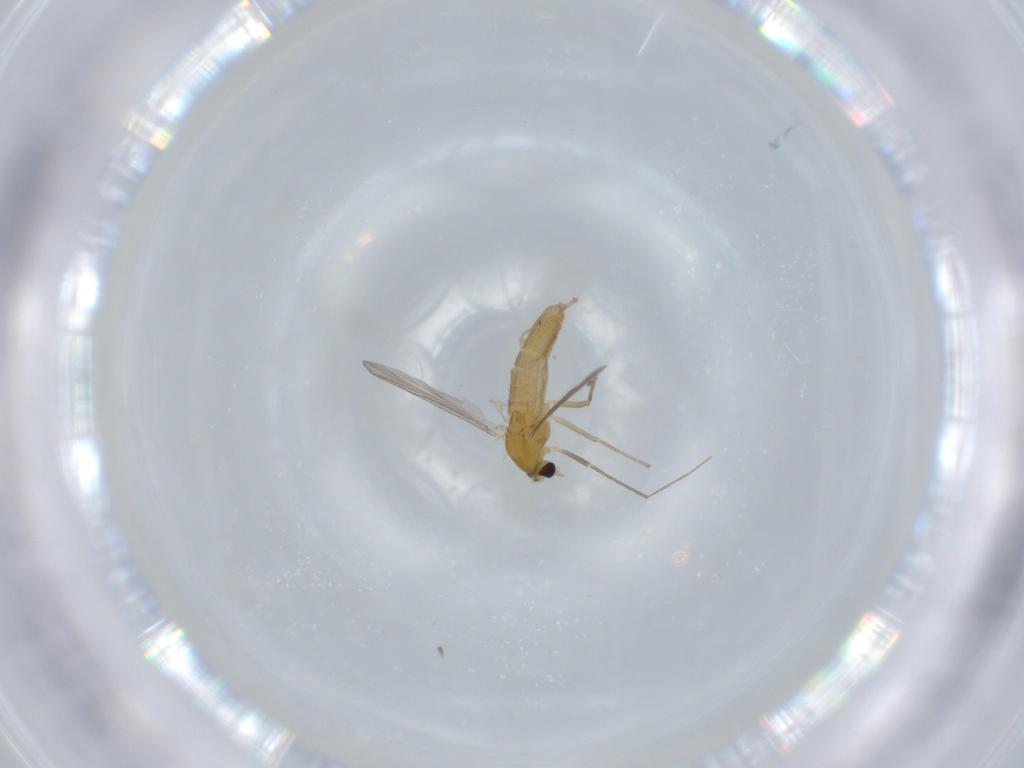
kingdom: Animalia
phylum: Arthropoda
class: Insecta
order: Diptera
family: Chironomidae
